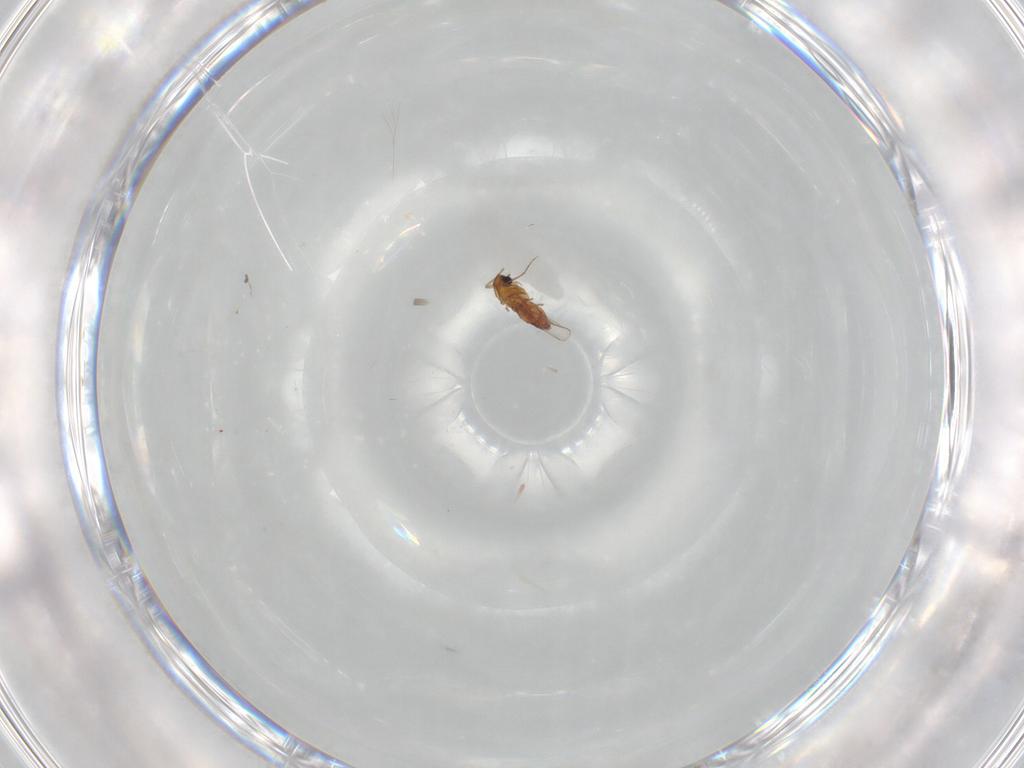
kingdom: Animalia
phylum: Arthropoda
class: Insecta
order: Diptera
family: Chironomidae
